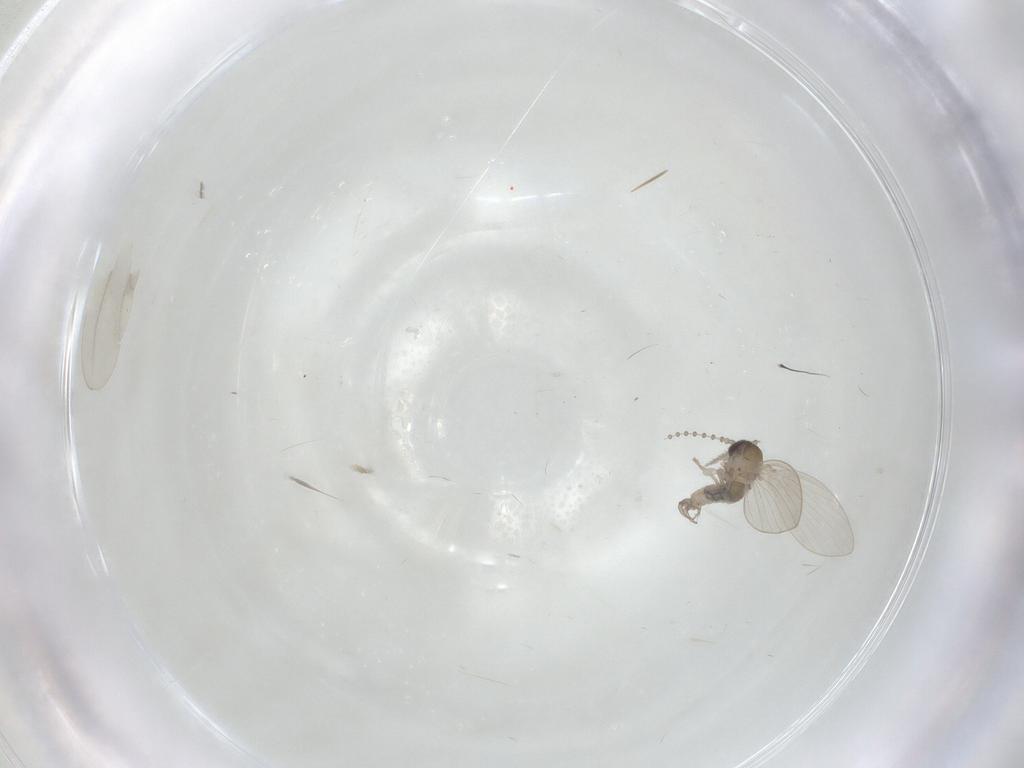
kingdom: Animalia
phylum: Arthropoda
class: Insecta
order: Diptera
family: Psychodidae
